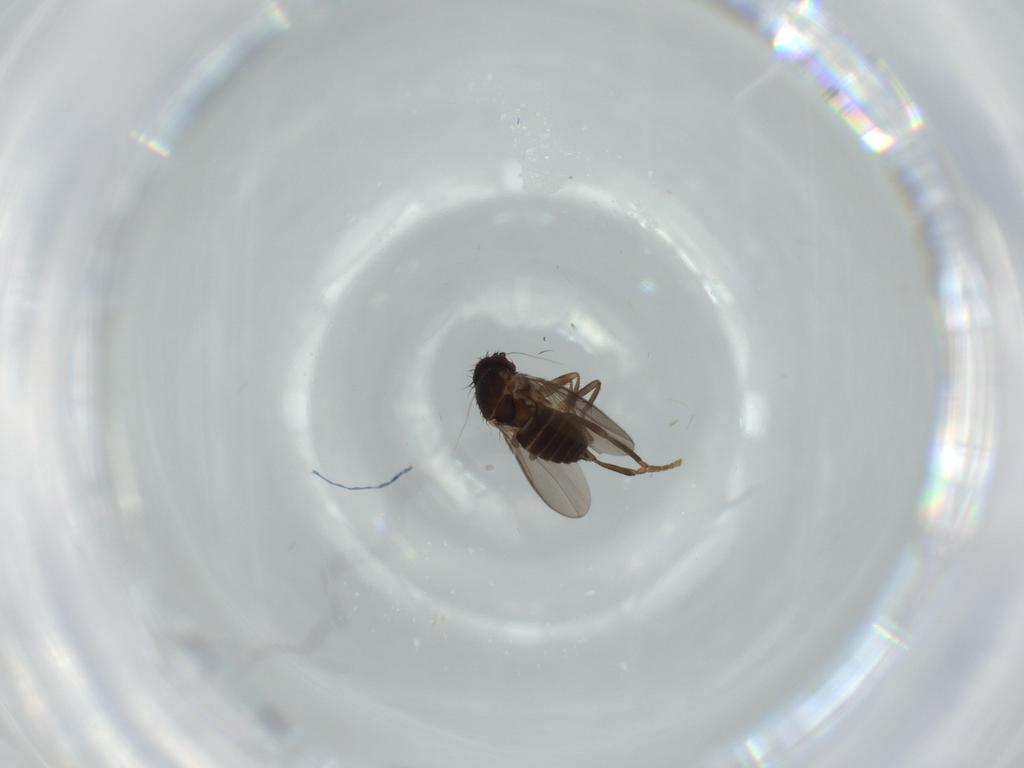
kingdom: Animalia
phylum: Arthropoda
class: Insecta
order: Diptera
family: Sphaeroceridae
